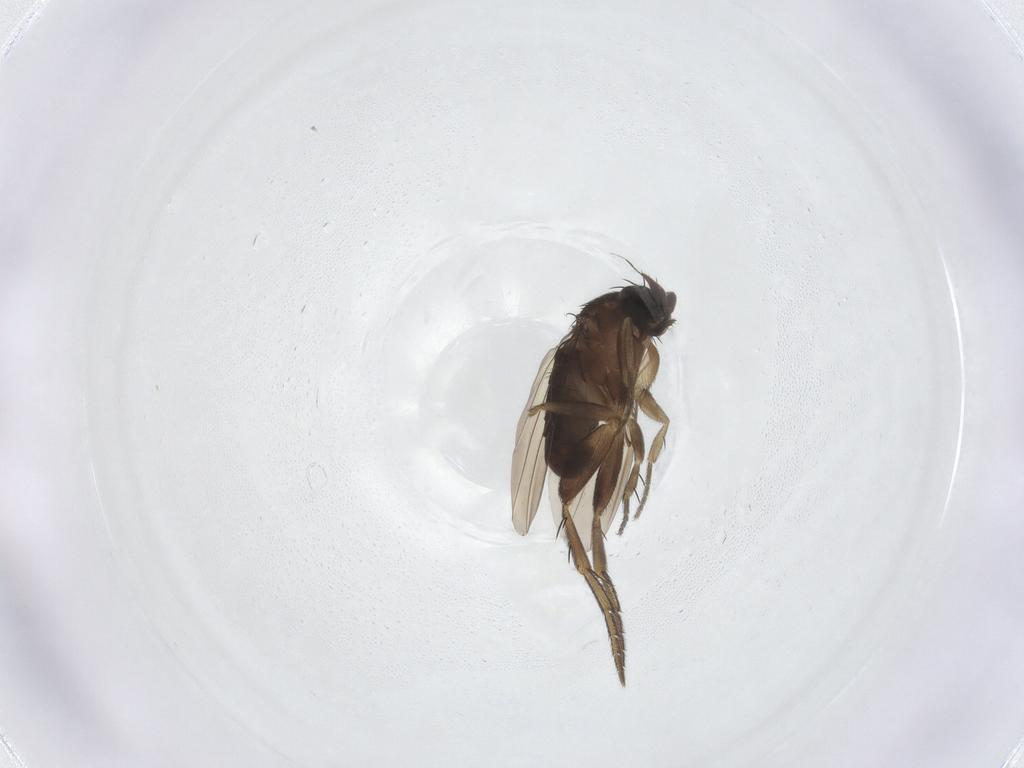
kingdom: Animalia
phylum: Arthropoda
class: Insecta
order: Diptera
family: Phoridae
